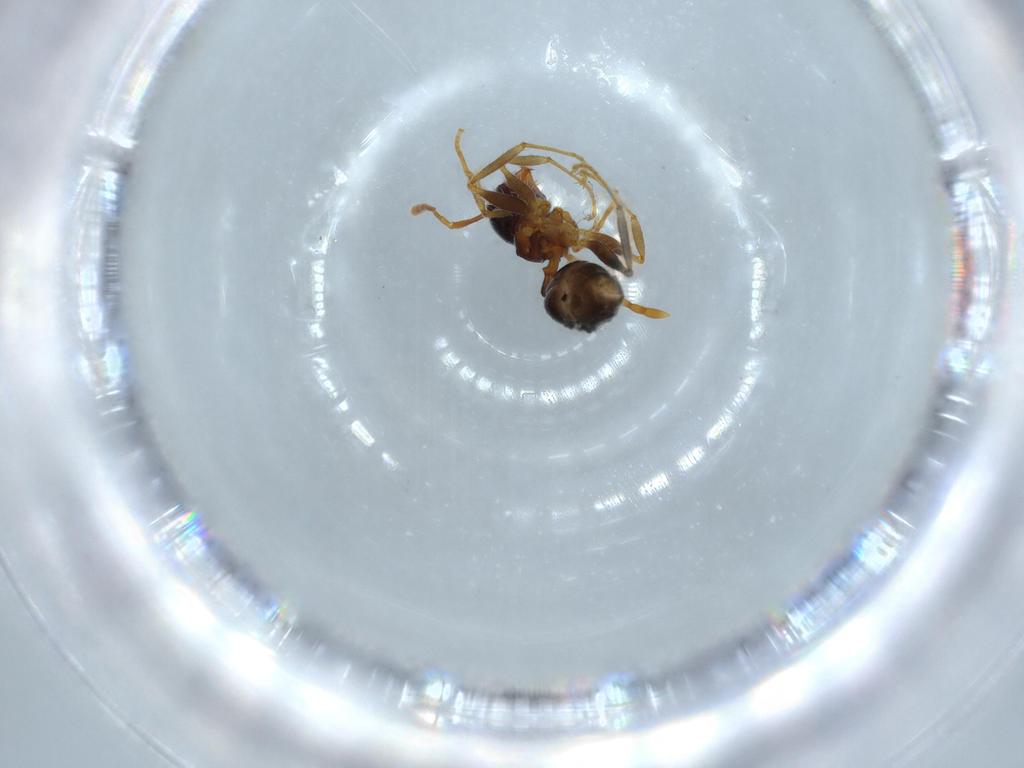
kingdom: Animalia
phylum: Arthropoda
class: Insecta
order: Hymenoptera
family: Formicidae
